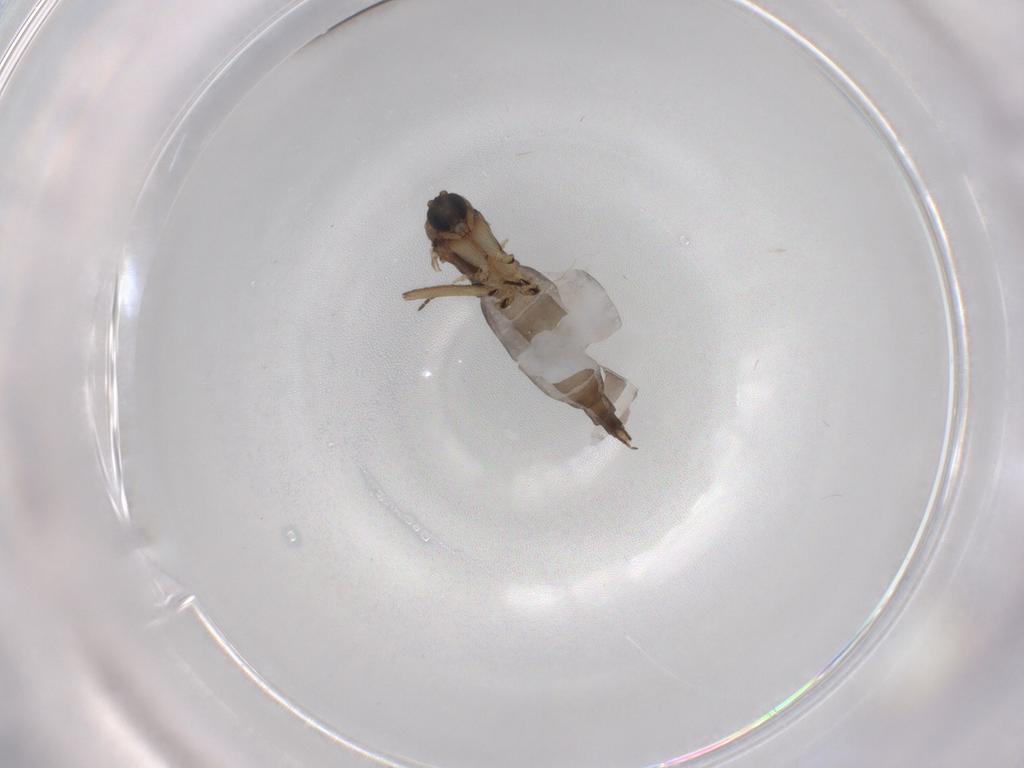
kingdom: Animalia
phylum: Arthropoda
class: Insecta
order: Diptera
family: Sciaridae
